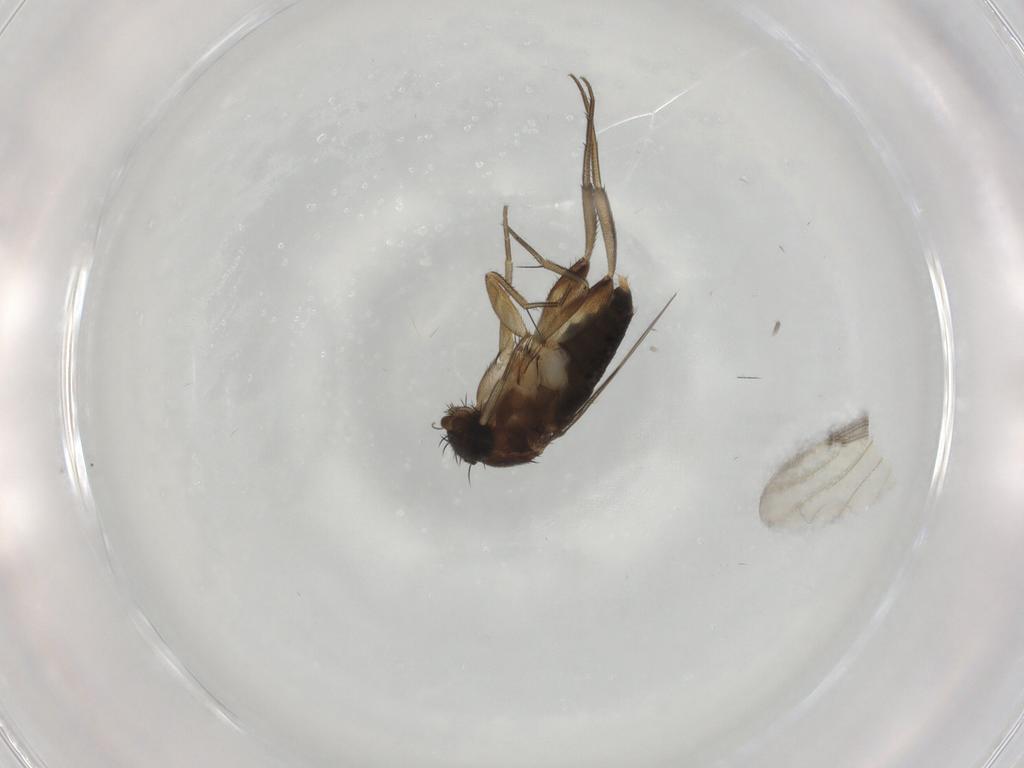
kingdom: Animalia
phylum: Arthropoda
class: Insecta
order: Diptera
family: Phoridae
